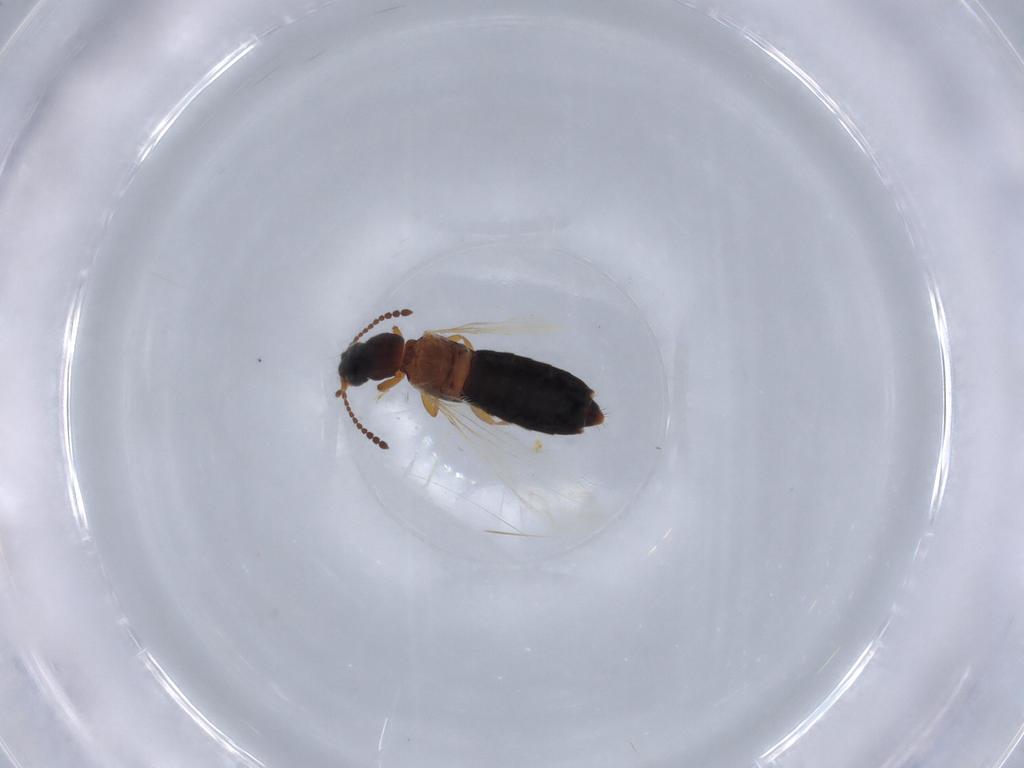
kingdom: Animalia
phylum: Arthropoda
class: Insecta
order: Coleoptera
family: Staphylinidae
